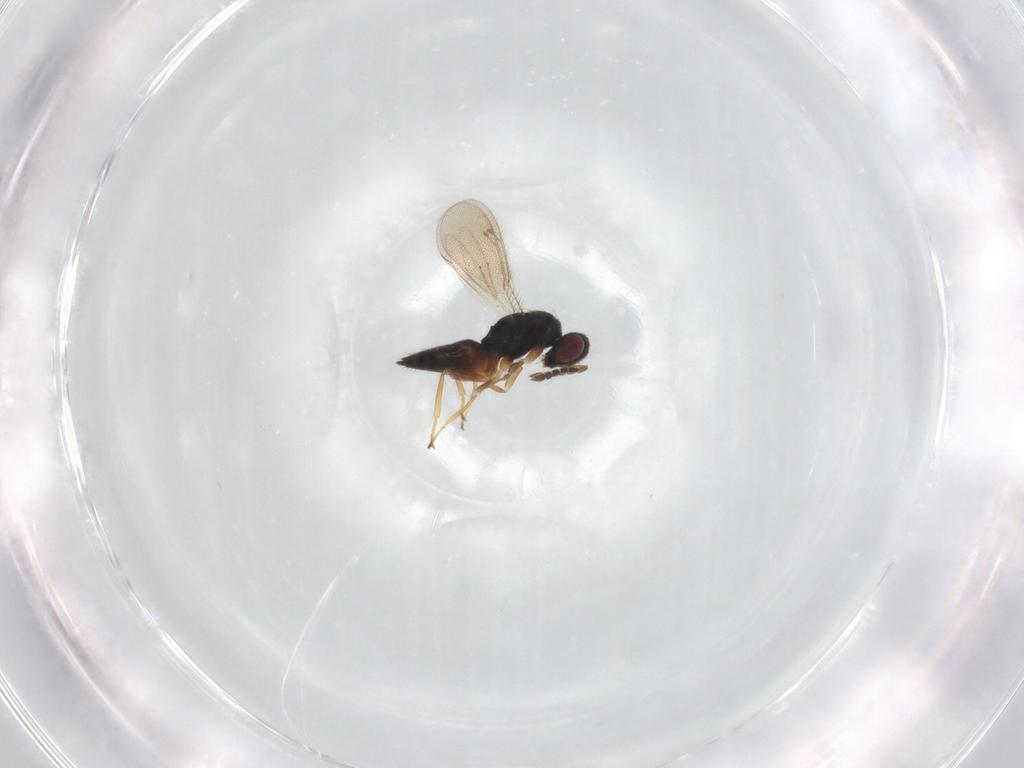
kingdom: Animalia
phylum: Arthropoda
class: Insecta
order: Hymenoptera
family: Eulophidae
